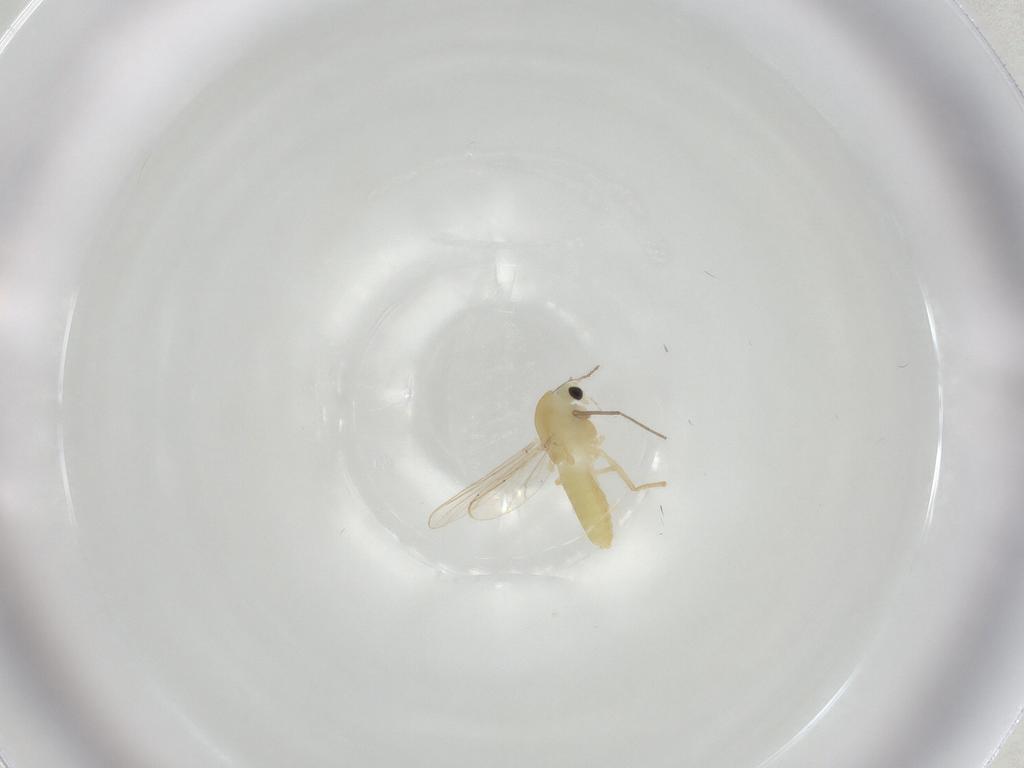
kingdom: Animalia
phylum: Arthropoda
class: Insecta
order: Diptera
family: Chironomidae
